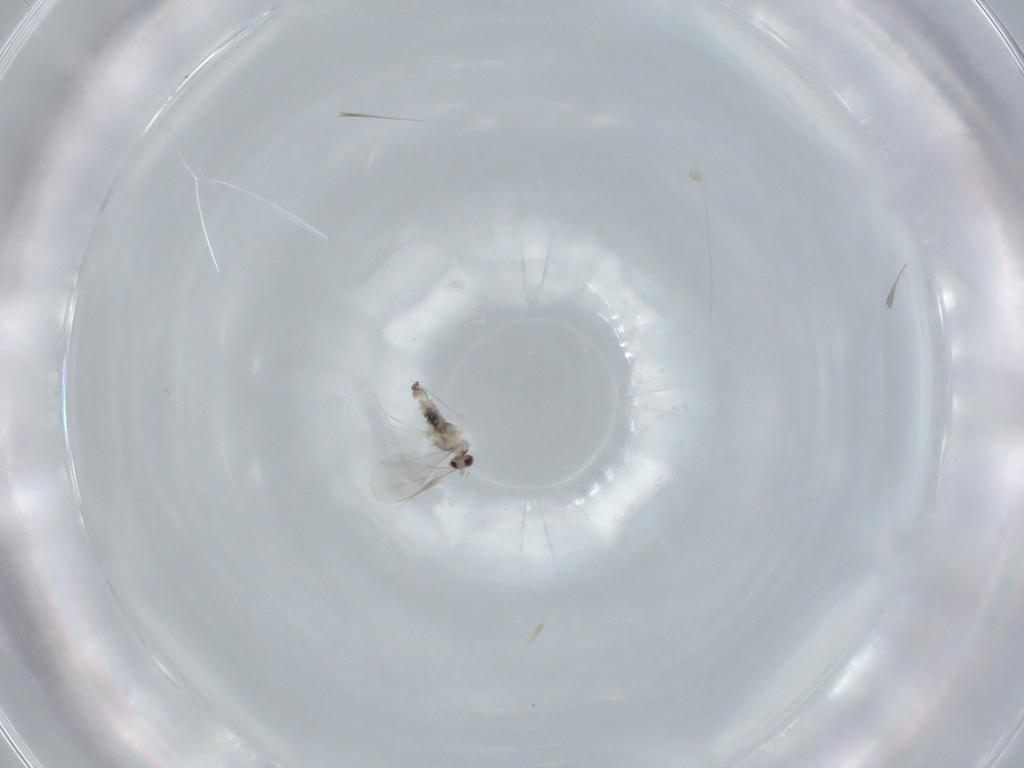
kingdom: Animalia
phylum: Arthropoda
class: Insecta
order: Diptera
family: Cecidomyiidae
